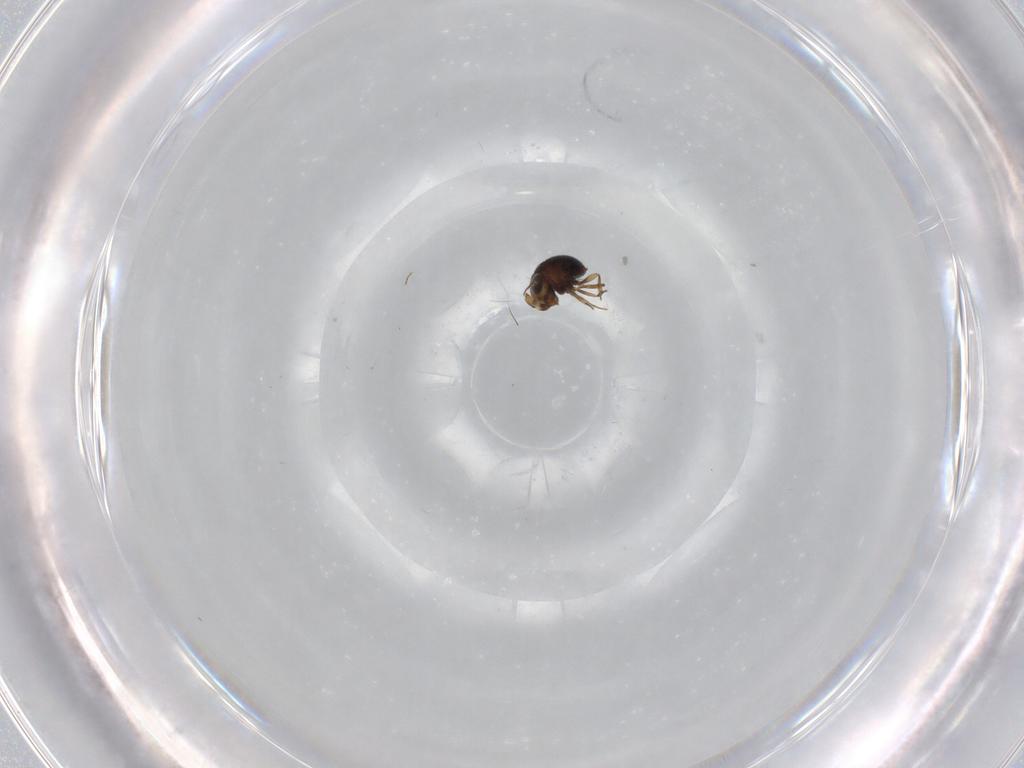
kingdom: Animalia
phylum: Arthropoda
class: Insecta
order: Hymenoptera
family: Scelionidae
